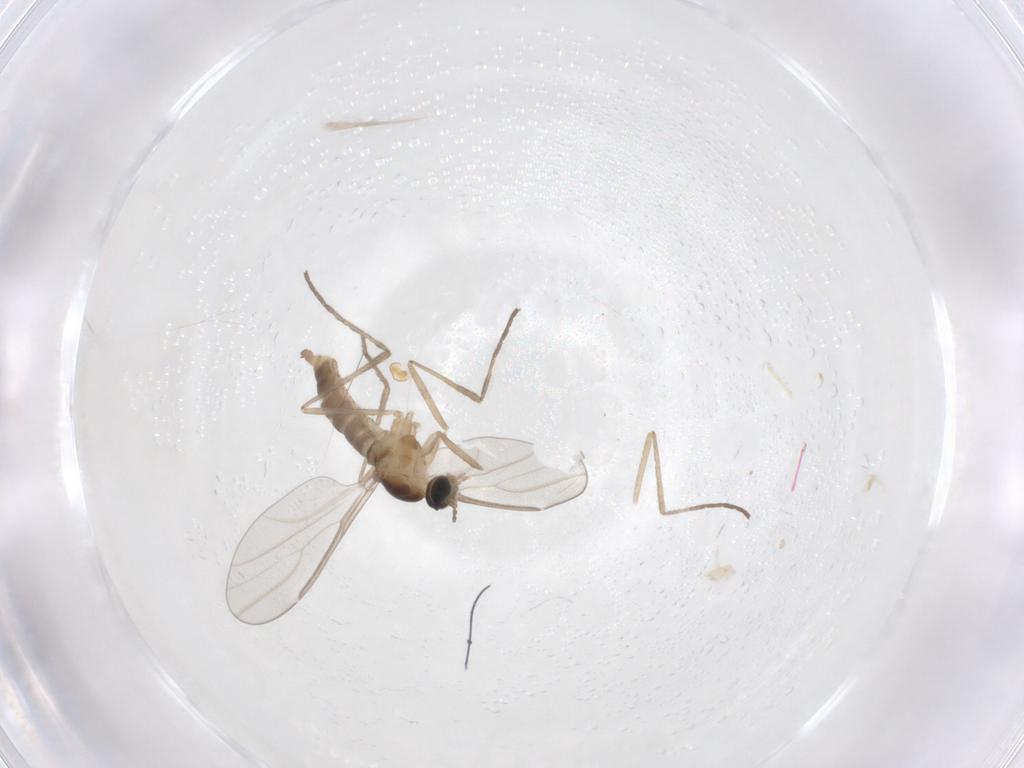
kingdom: Animalia
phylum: Arthropoda
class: Insecta
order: Diptera
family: Cecidomyiidae
